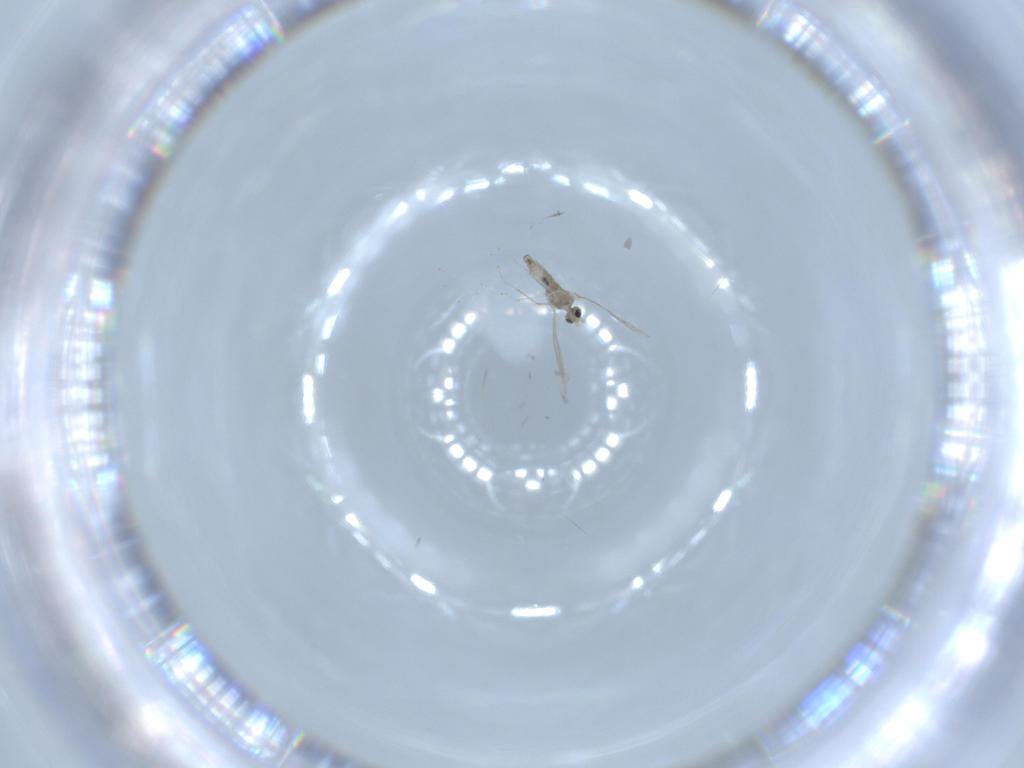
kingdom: Animalia
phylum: Arthropoda
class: Insecta
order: Diptera
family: Cecidomyiidae
